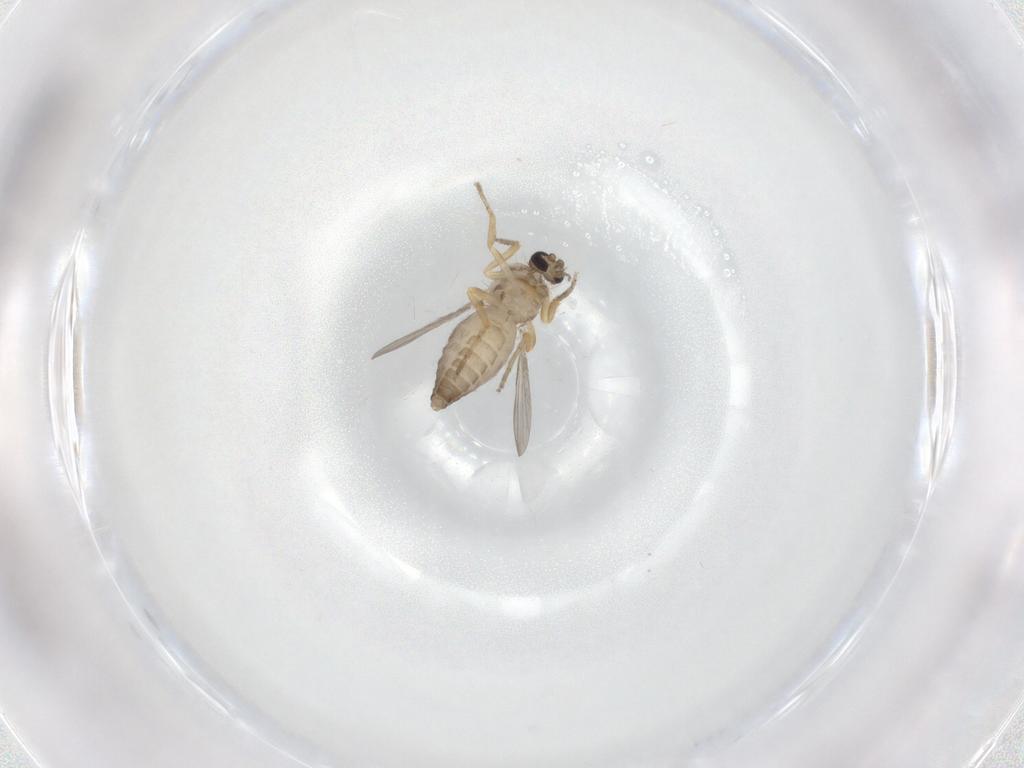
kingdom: Animalia
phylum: Arthropoda
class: Insecta
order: Diptera
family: Ceratopogonidae
